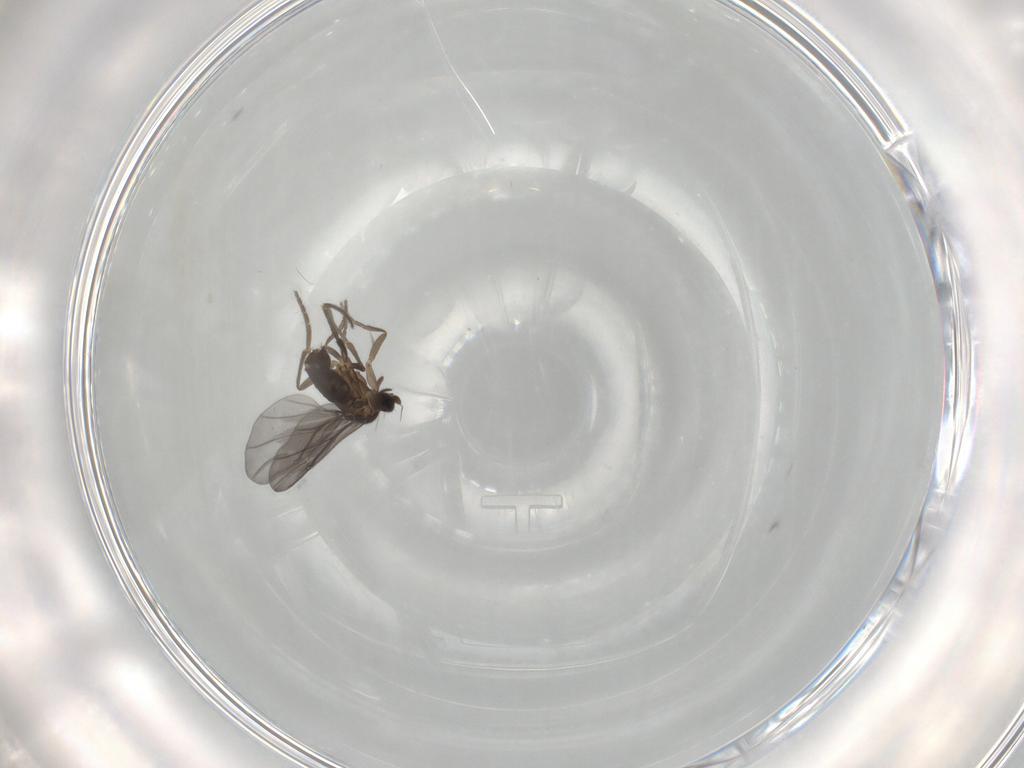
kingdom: Animalia
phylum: Arthropoda
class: Insecta
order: Diptera
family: Phoridae
